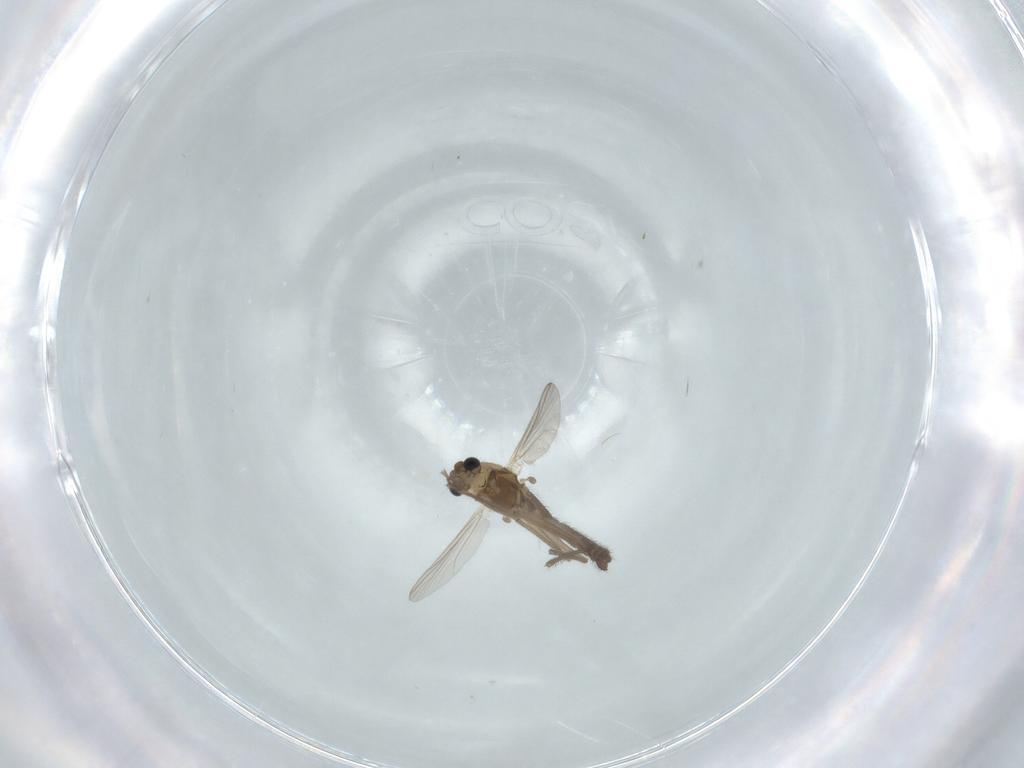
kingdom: Animalia
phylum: Arthropoda
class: Insecta
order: Diptera
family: Chironomidae
